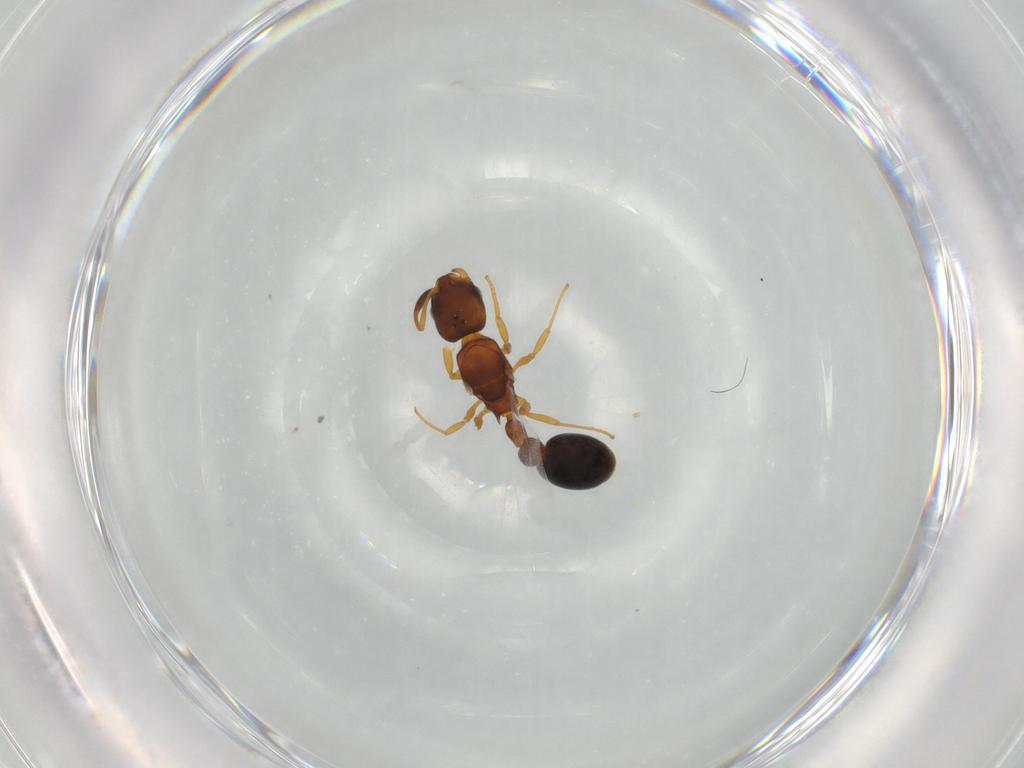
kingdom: Animalia
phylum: Arthropoda
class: Insecta
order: Hymenoptera
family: Formicidae
